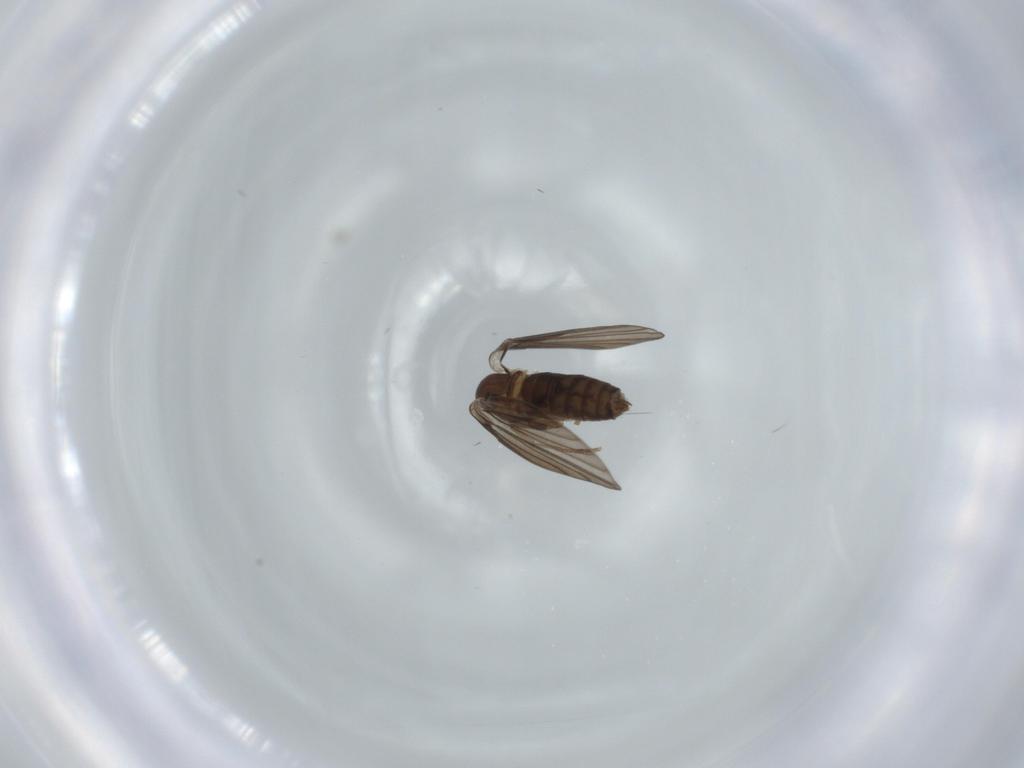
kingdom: Animalia
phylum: Arthropoda
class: Insecta
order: Diptera
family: Psychodidae
